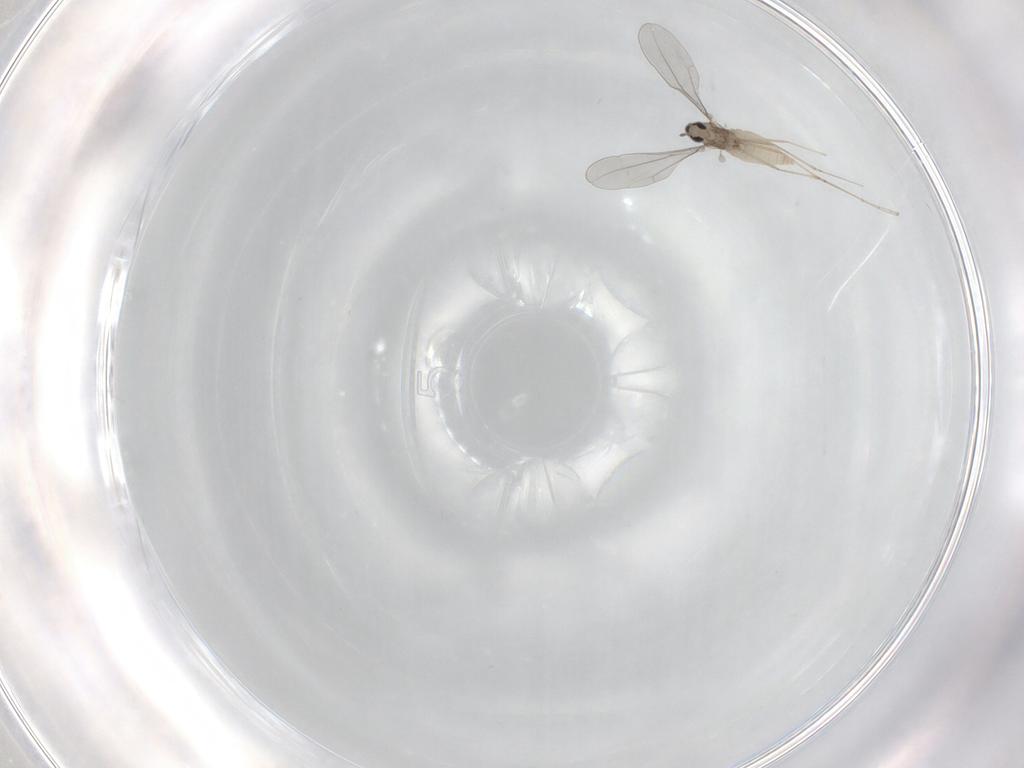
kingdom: Animalia
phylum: Arthropoda
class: Insecta
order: Diptera
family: Cecidomyiidae
